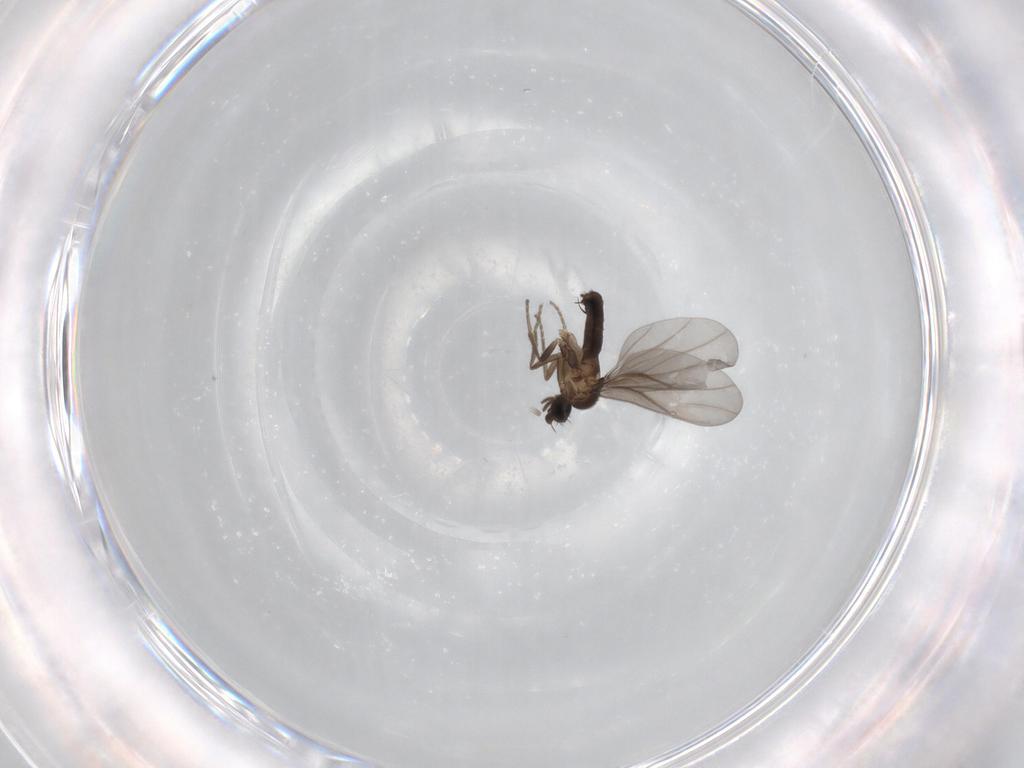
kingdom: Animalia
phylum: Arthropoda
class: Insecta
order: Diptera
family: Phoridae
